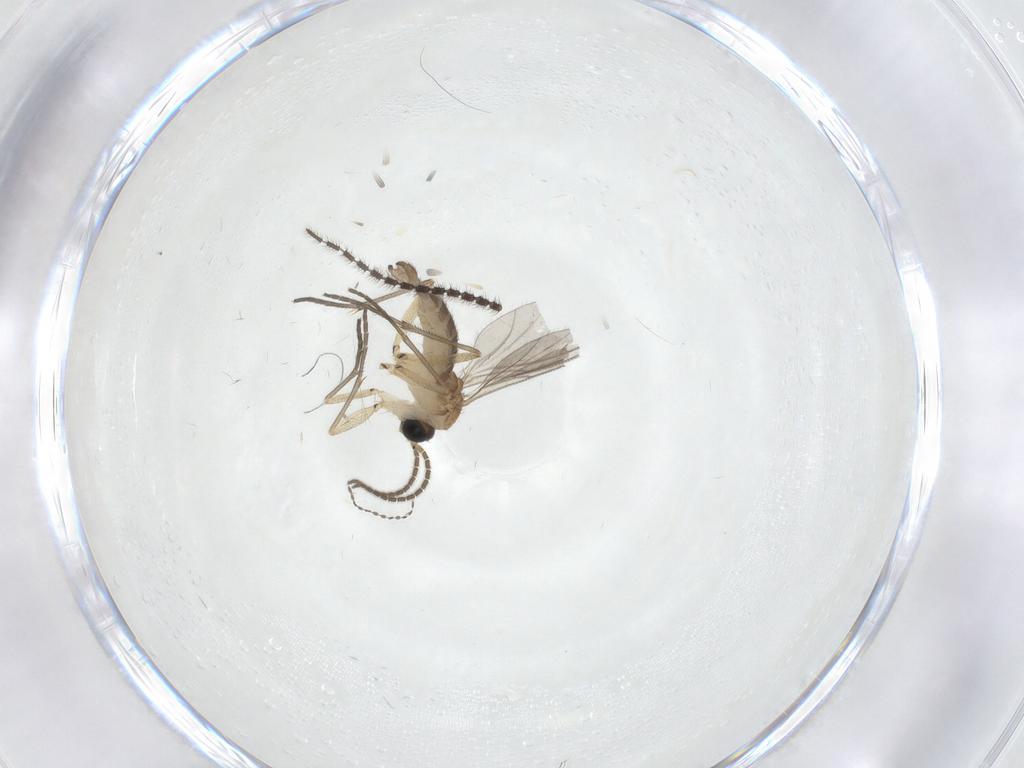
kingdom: Animalia
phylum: Arthropoda
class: Insecta
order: Diptera
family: Sciaridae
